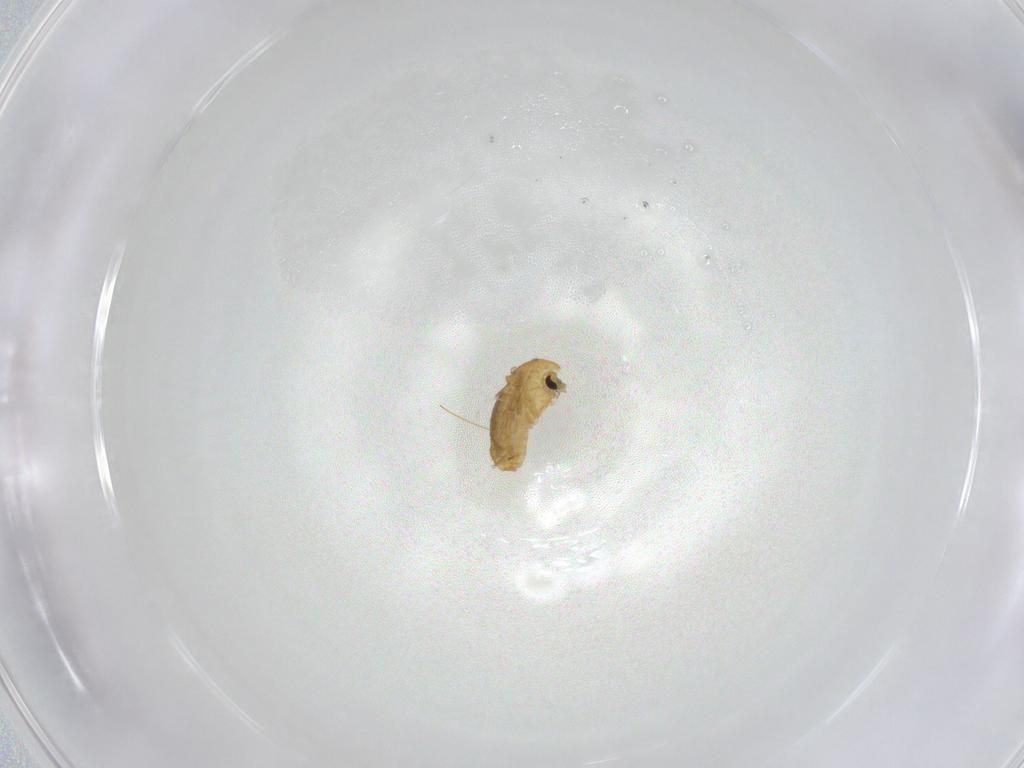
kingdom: Animalia
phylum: Arthropoda
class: Insecta
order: Diptera
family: Chironomidae
